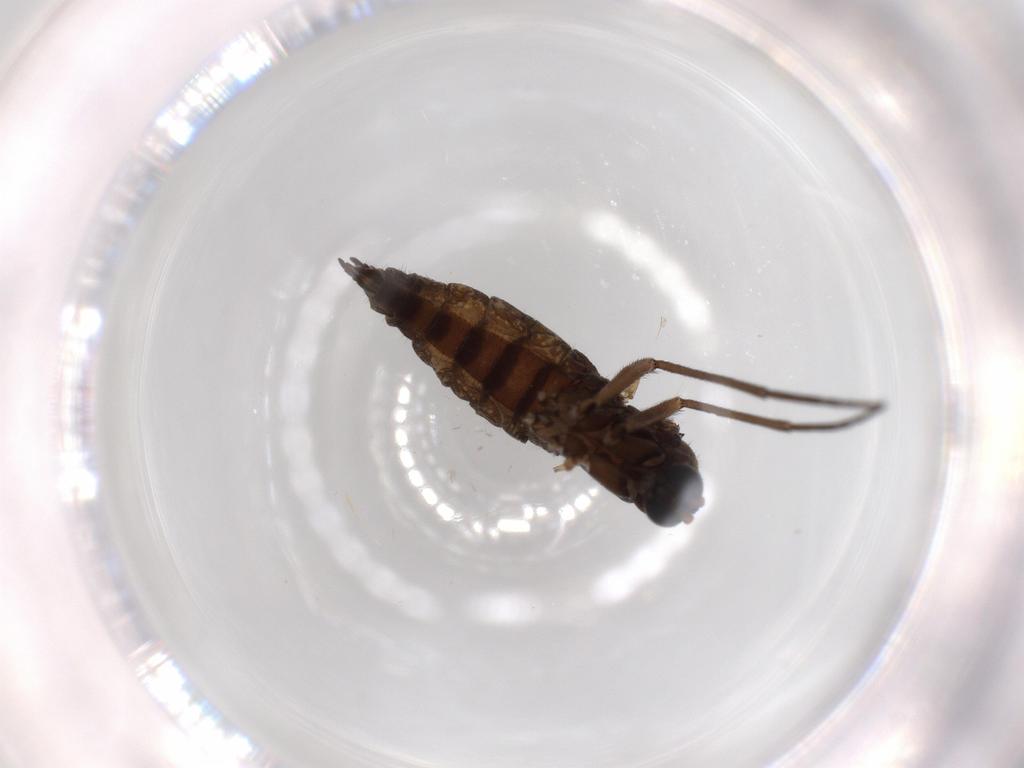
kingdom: Animalia
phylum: Arthropoda
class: Insecta
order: Diptera
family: Sciaridae
